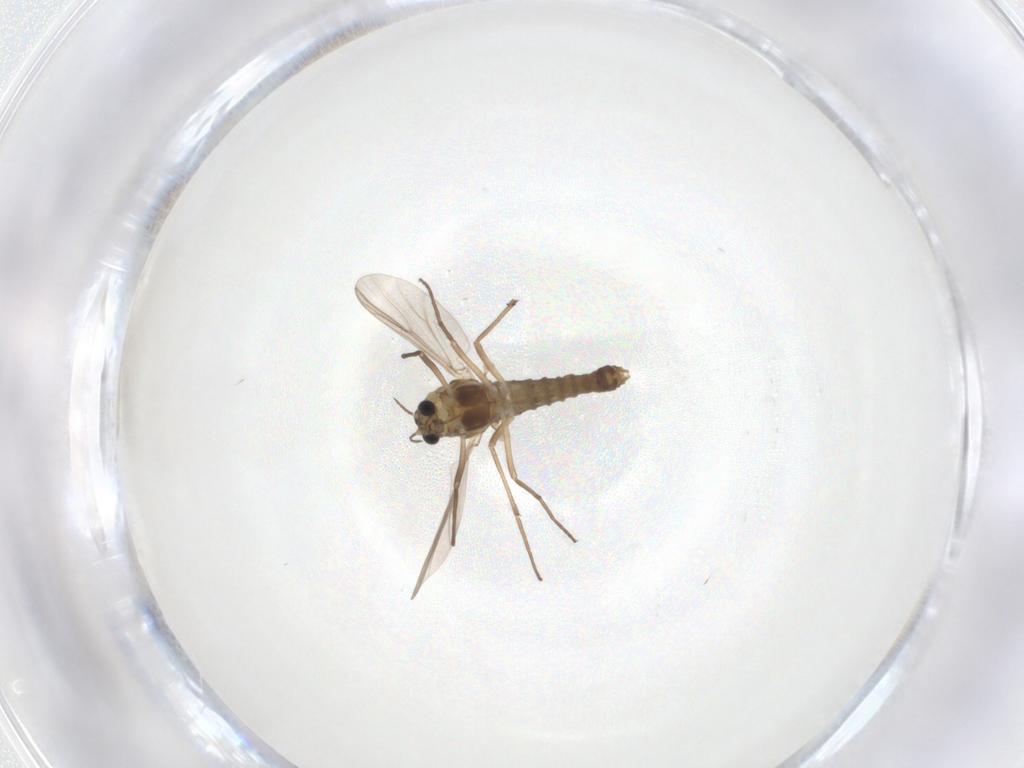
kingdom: Animalia
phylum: Arthropoda
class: Insecta
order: Diptera
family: Chironomidae
